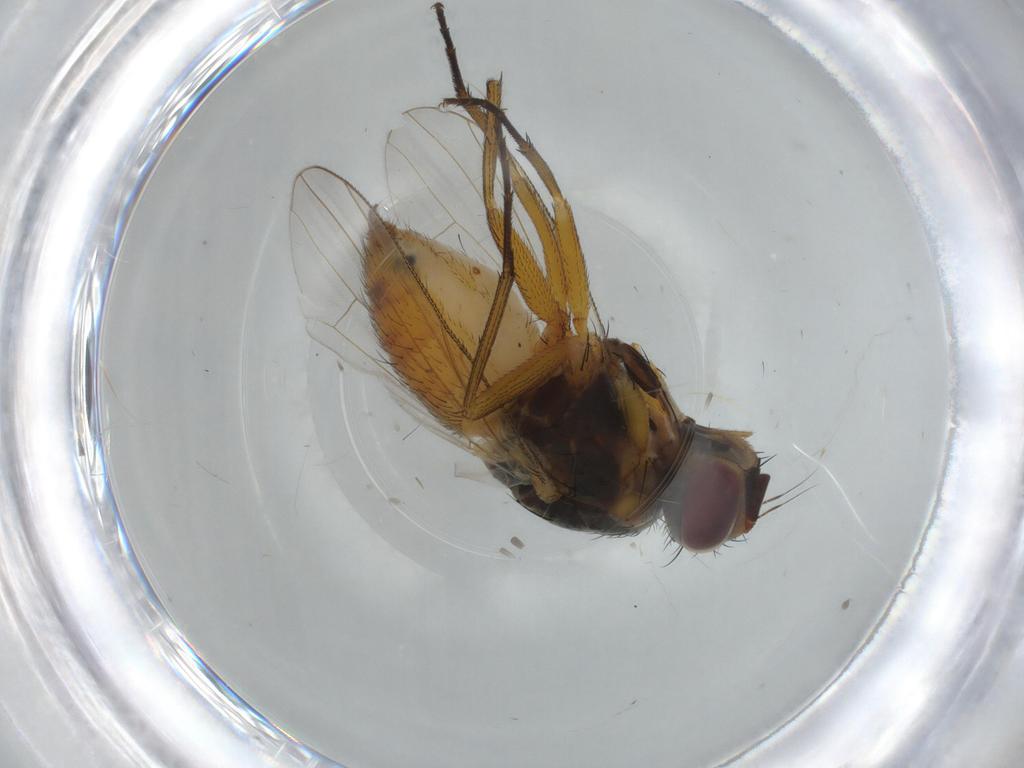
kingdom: Animalia
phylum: Arthropoda
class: Insecta
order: Diptera
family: Muscidae
